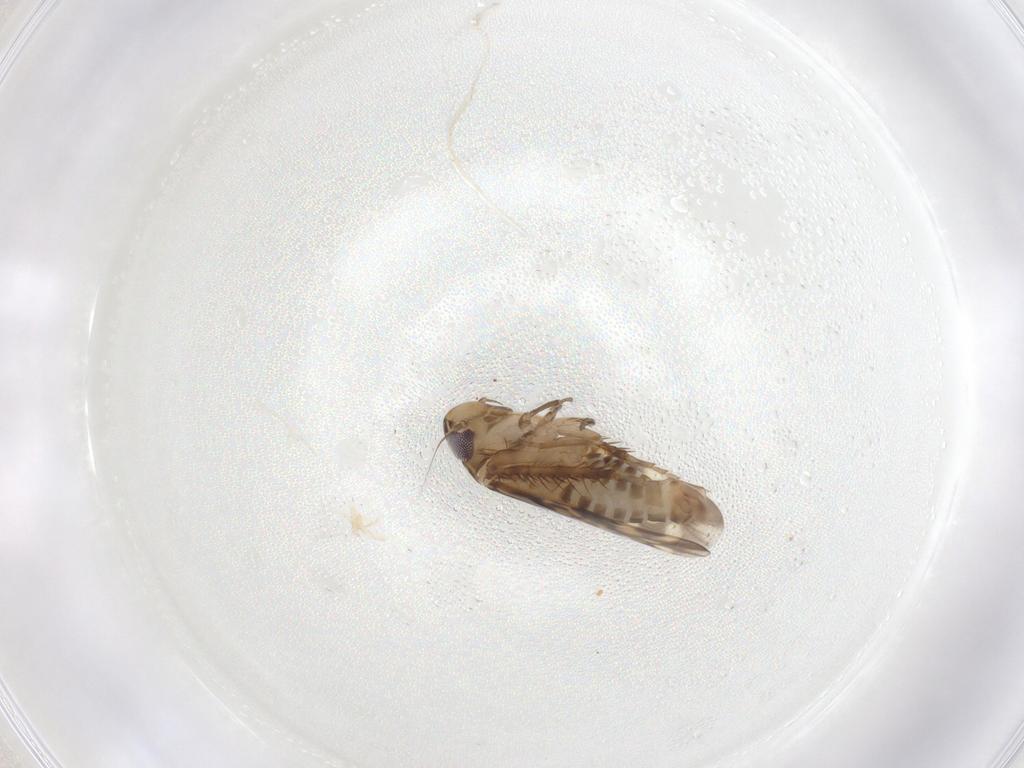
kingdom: Animalia
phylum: Arthropoda
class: Insecta
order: Hemiptera
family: Cicadellidae
